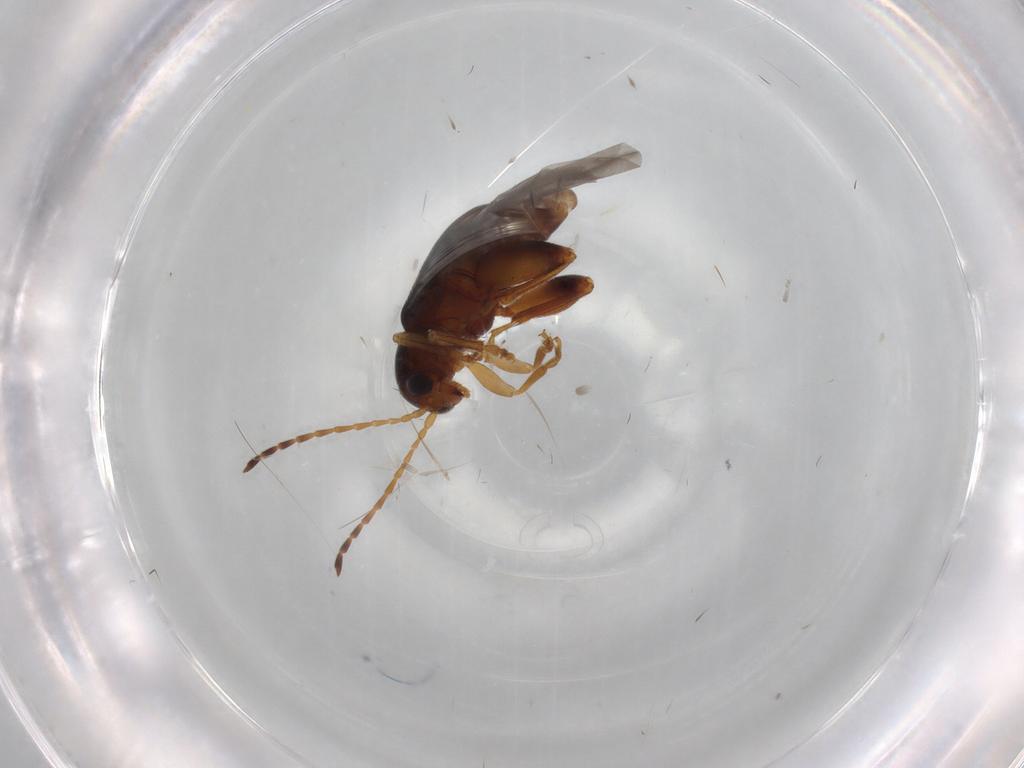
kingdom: Animalia
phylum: Arthropoda
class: Insecta
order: Coleoptera
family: Chrysomelidae
